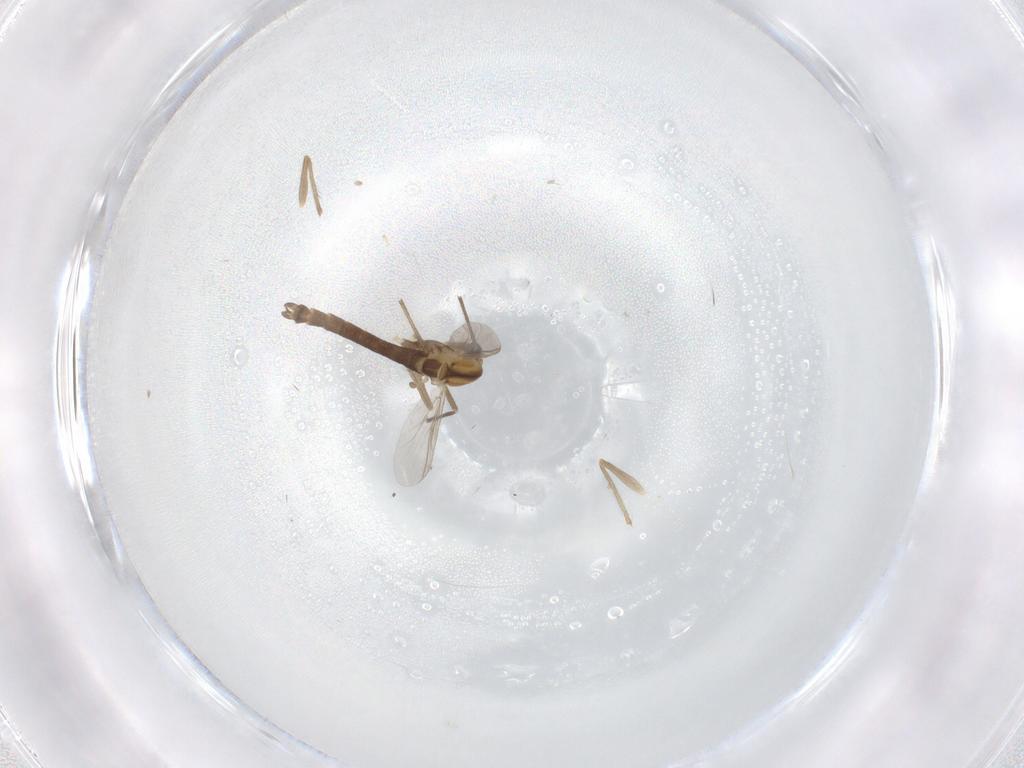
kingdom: Animalia
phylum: Arthropoda
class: Insecta
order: Diptera
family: Chironomidae
